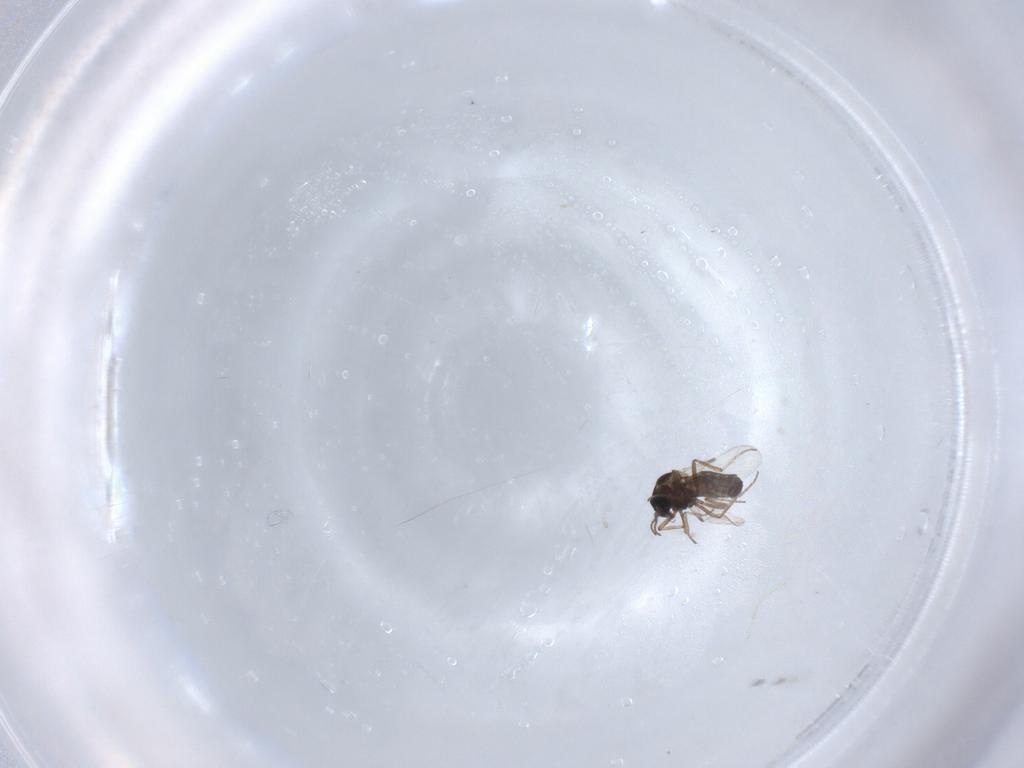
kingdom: Animalia
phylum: Arthropoda
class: Insecta
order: Diptera
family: Ceratopogonidae
